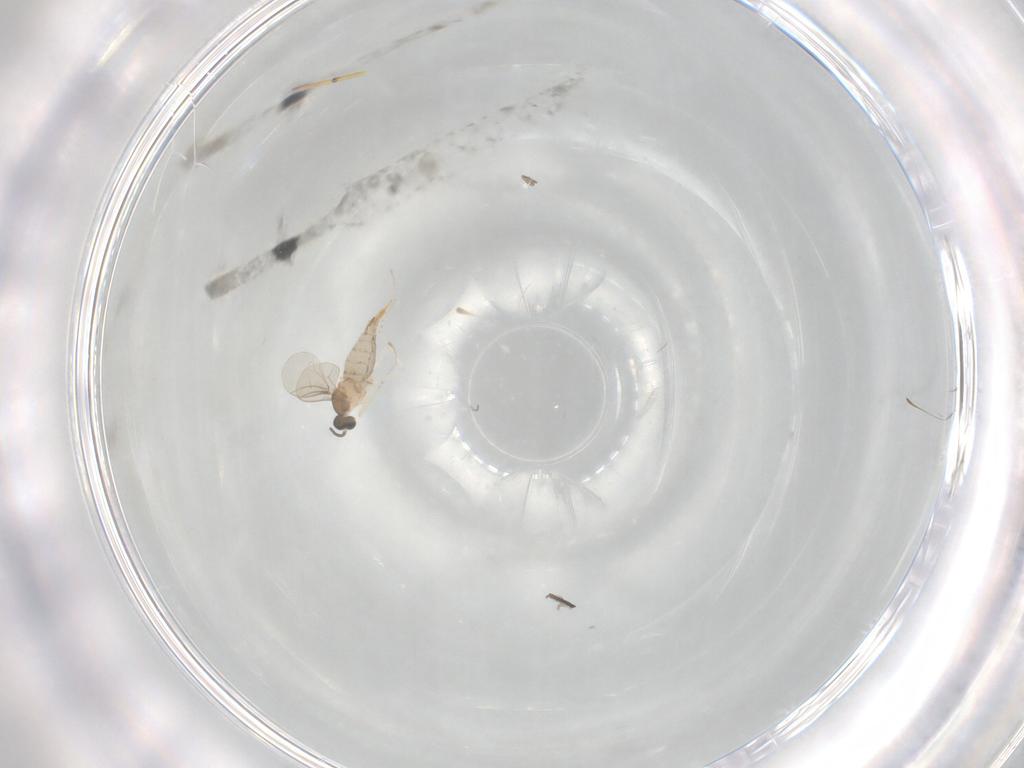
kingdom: Animalia
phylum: Arthropoda
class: Insecta
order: Diptera
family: Cecidomyiidae
